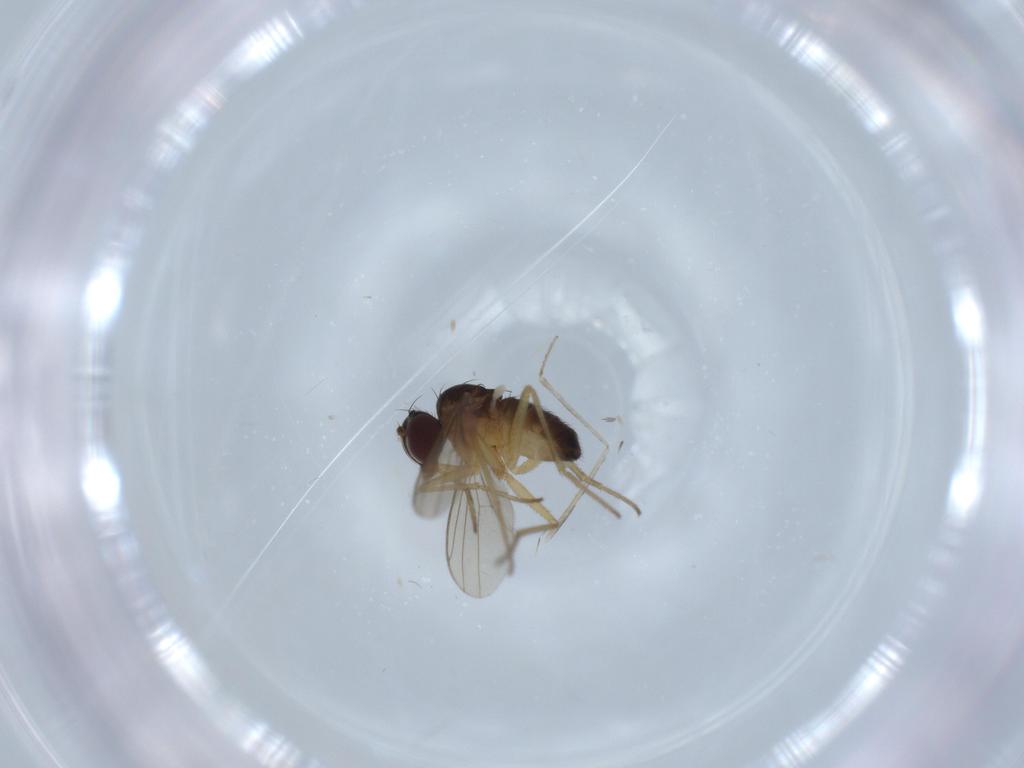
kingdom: Animalia
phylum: Arthropoda
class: Insecta
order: Diptera
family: Dolichopodidae
